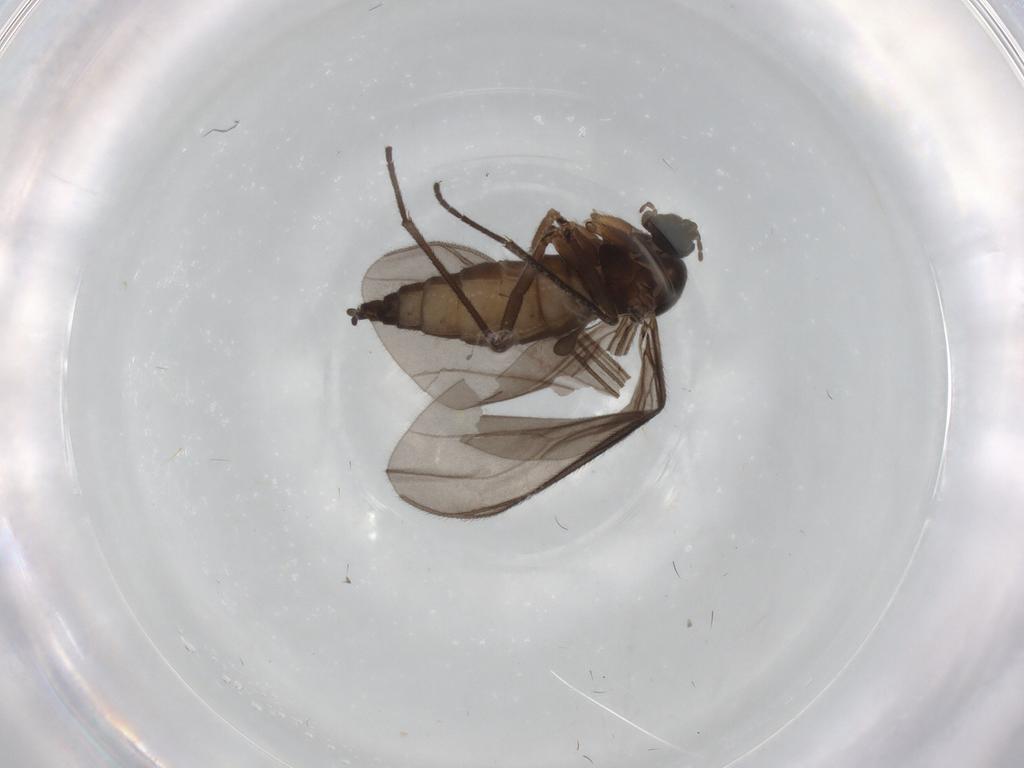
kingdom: Animalia
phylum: Arthropoda
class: Insecta
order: Diptera
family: Sciaridae
